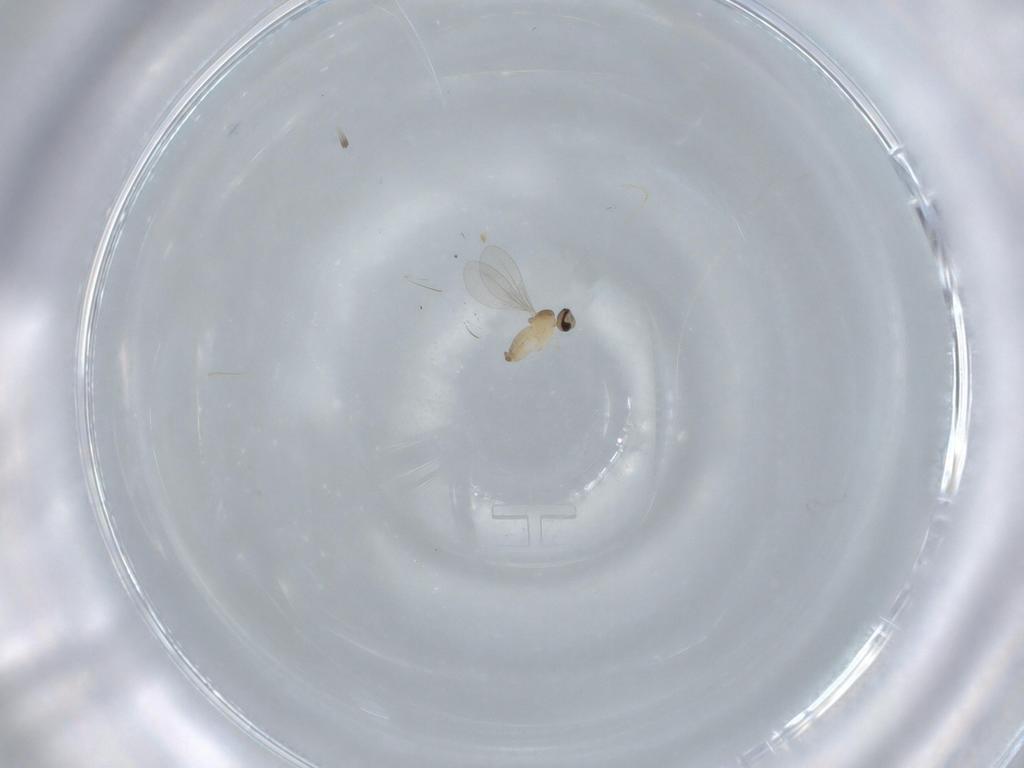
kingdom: Animalia
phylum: Arthropoda
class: Insecta
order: Diptera
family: Cecidomyiidae
